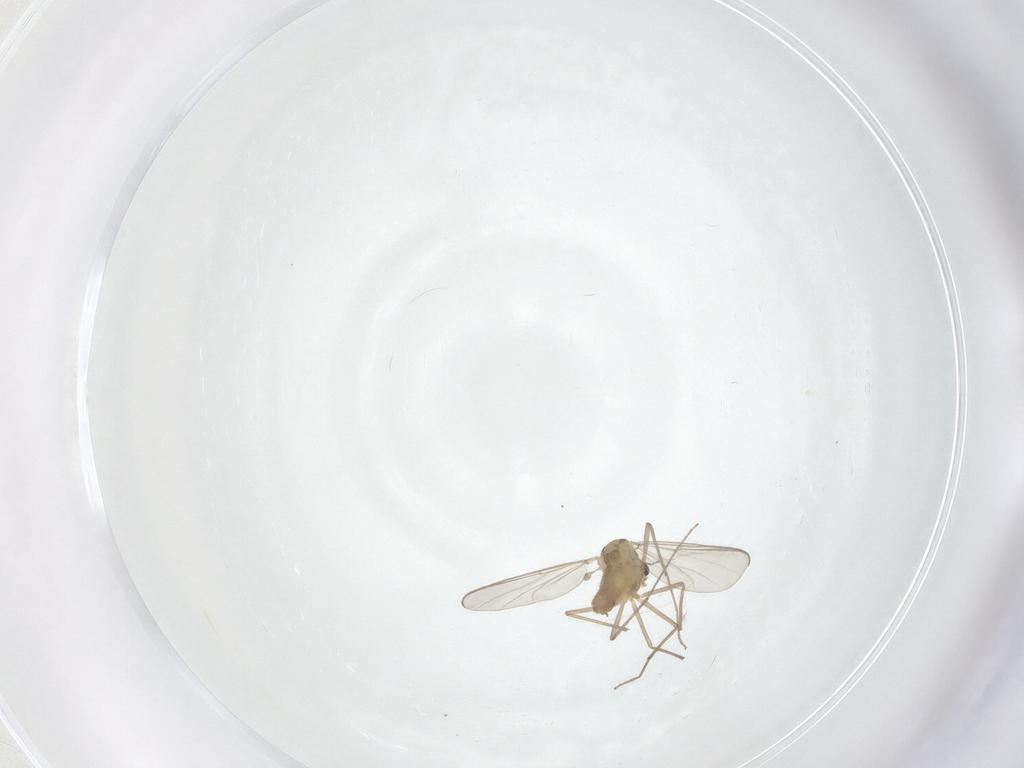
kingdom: Animalia
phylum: Arthropoda
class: Insecta
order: Diptera
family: Chironomidae
